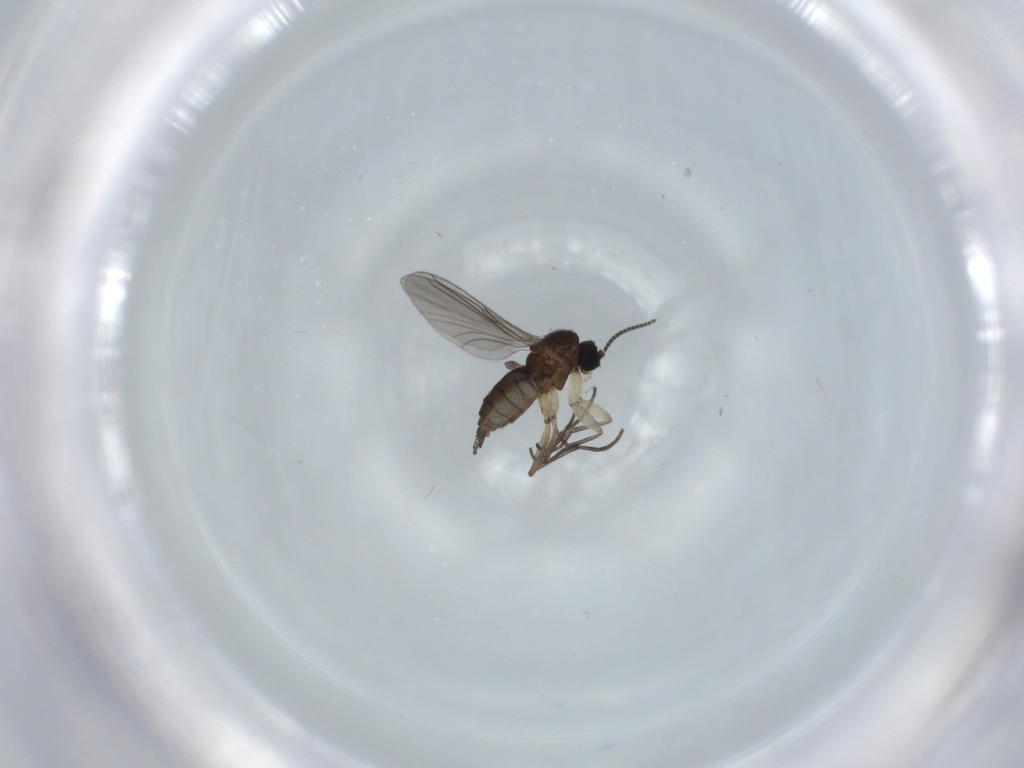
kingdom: Animalia
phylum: Arthropoda
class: Insecta
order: Diptera
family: Sciaridae
